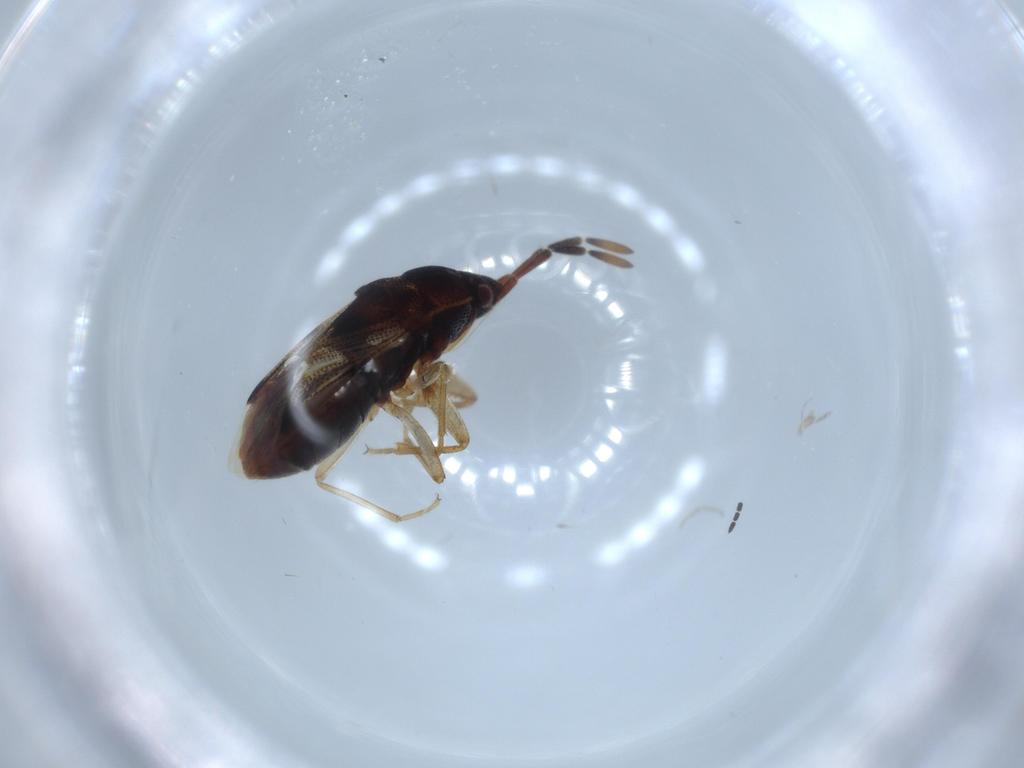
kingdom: Animalia
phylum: Arthropoda
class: Insecta
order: Hemiptera
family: Rhyparochromidae
